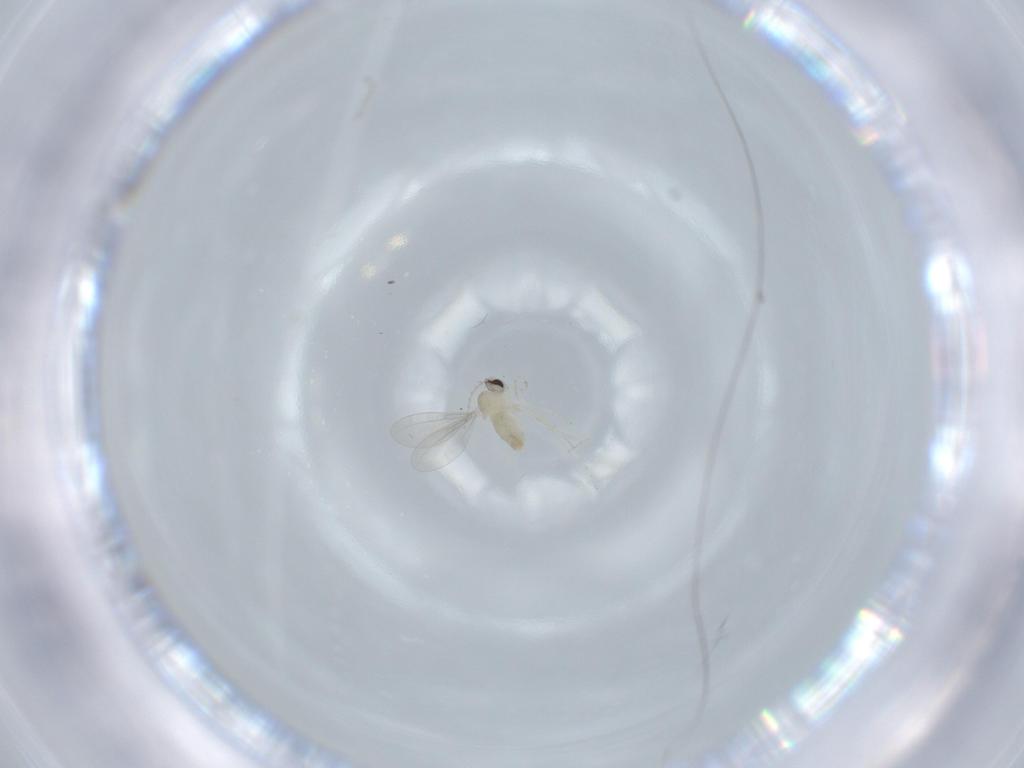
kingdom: Animalia
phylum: Arthropoda
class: Insecta
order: Diptera
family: Cecidomyiidae
